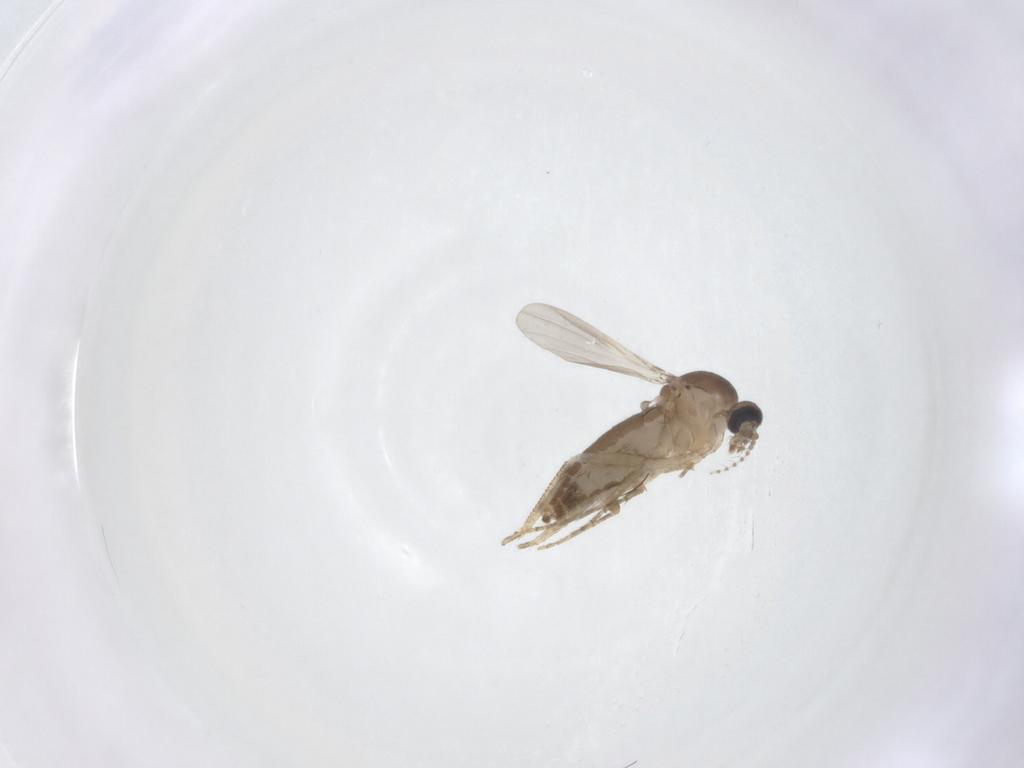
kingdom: Animalia
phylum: Arthropoda
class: Insecta
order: Diptera
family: Ceratopogonidae
